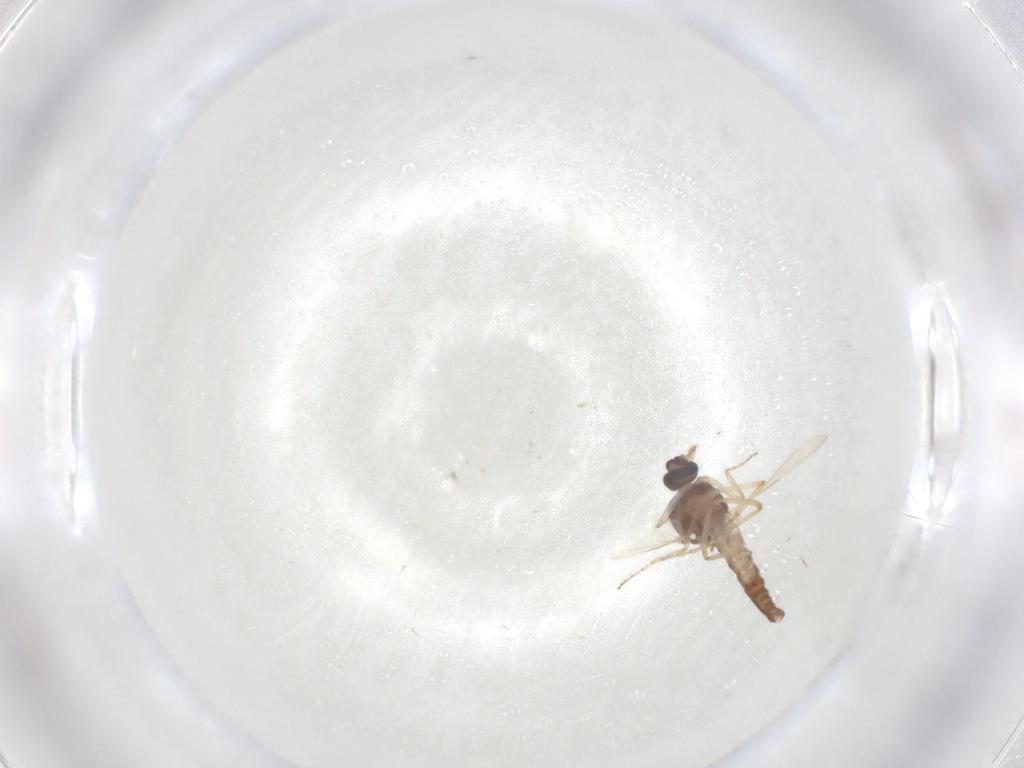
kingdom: Animalia
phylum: Arthropoda
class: Insecta
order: Diptera
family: Ceratopogonidae
